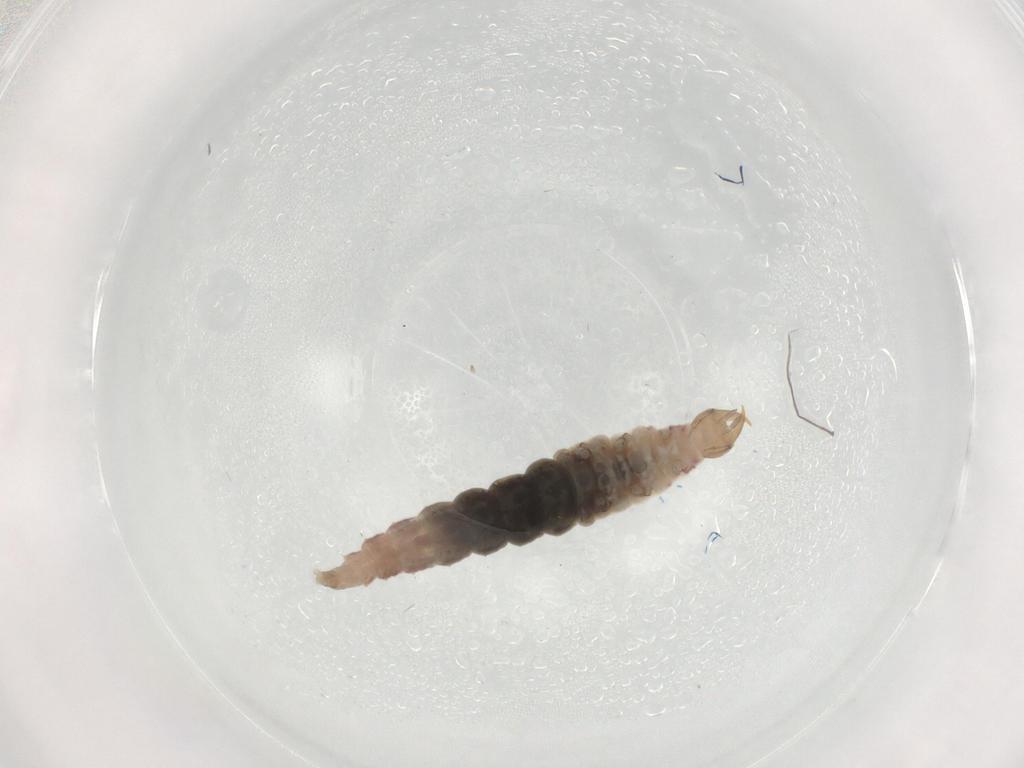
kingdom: Animalia
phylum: Arthropoda
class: Insecta
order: Neuroptera
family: Hemerobiidae
